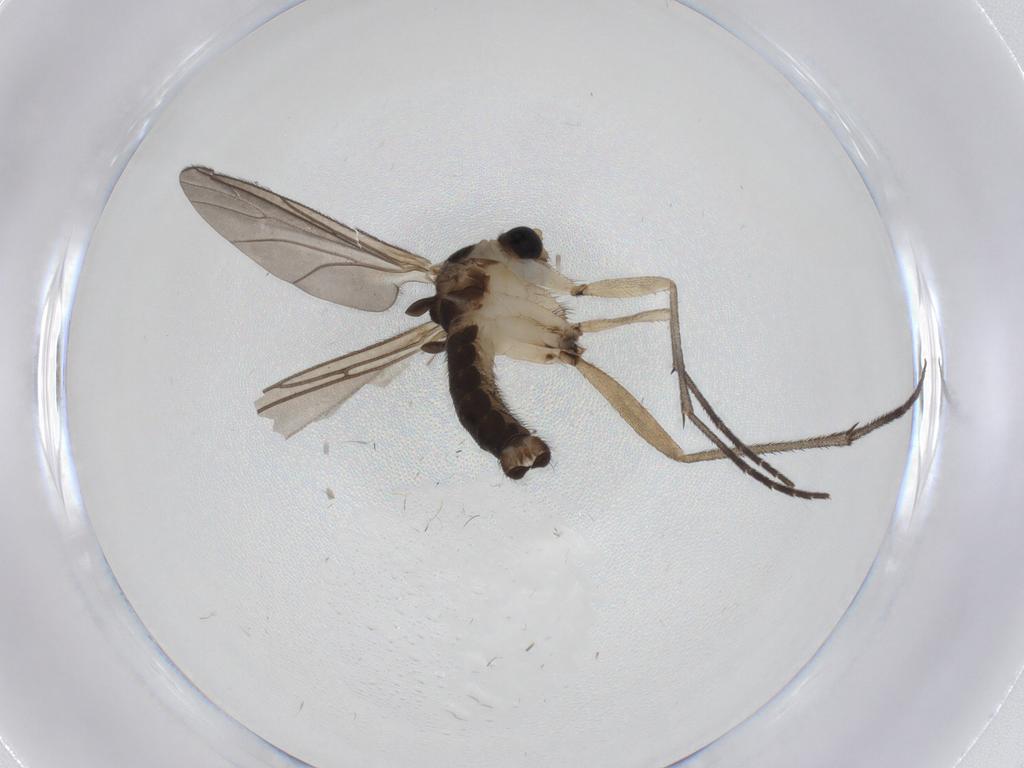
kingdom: Animalia
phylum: Arthropoda
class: Insecta
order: Diptera
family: Sciaridae
